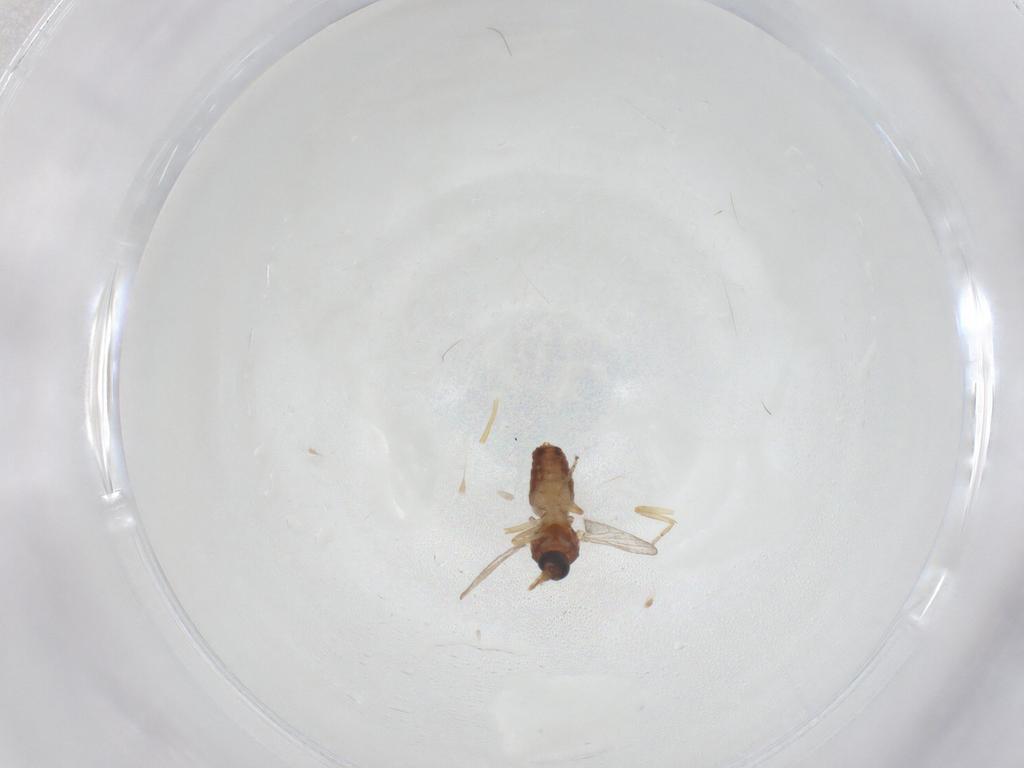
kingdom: Animalia
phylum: Arthropoda
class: Insecta
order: Diptera
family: Ceratopogonidae
